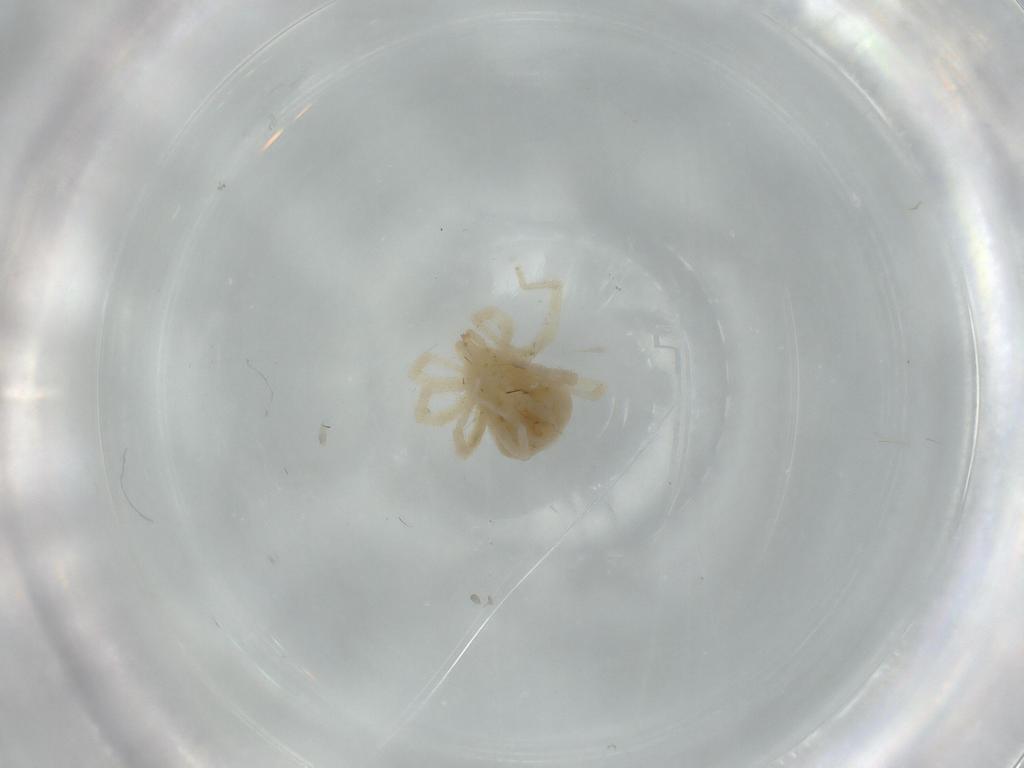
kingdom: Animalia
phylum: Arthropoda
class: Arachnida
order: Trombidiformes
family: Anystidae
